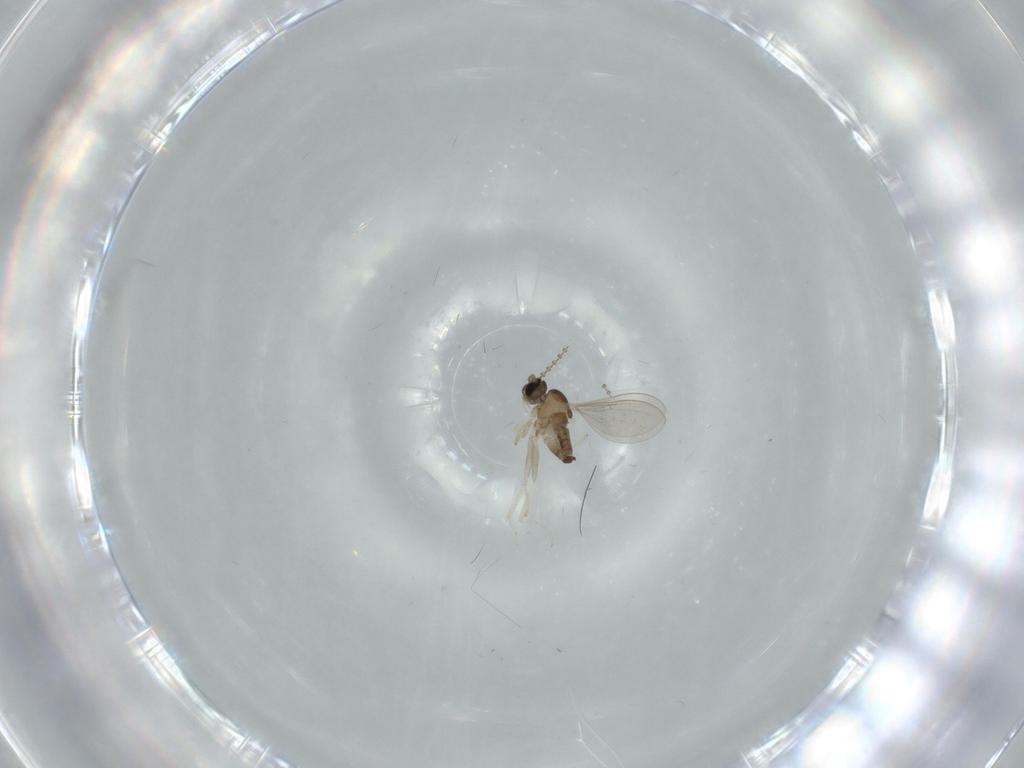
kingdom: Animalia
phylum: Arthropoda
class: Insecta
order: Diptera
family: Cecidomyiidae
